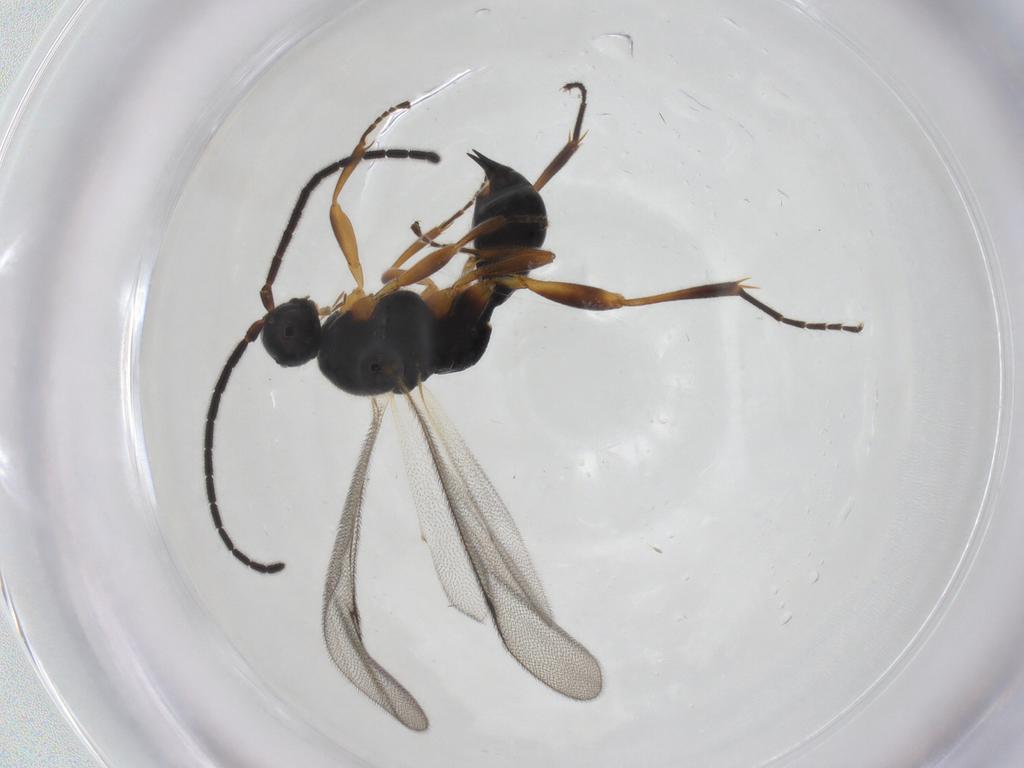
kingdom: Animalia
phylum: Arthropoda
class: Insecta
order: Hymenoptera
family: Proctotrupidae
